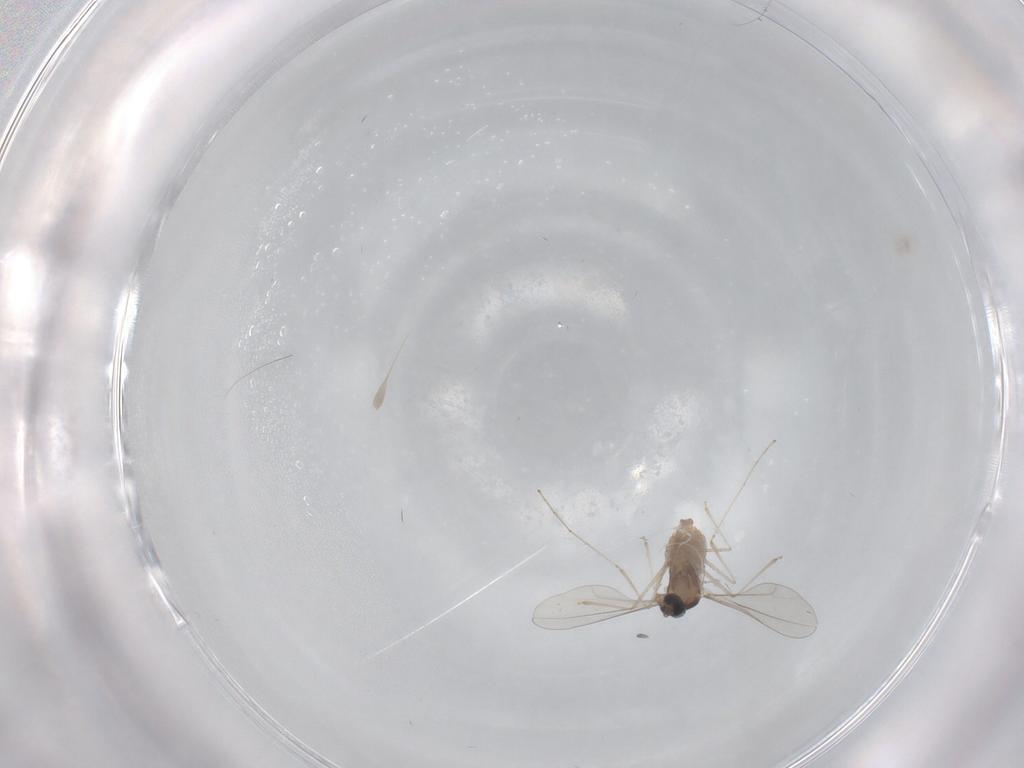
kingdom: Animalia
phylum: Arthropoda
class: Insecta
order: Diptera
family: Cecidomyiidae
